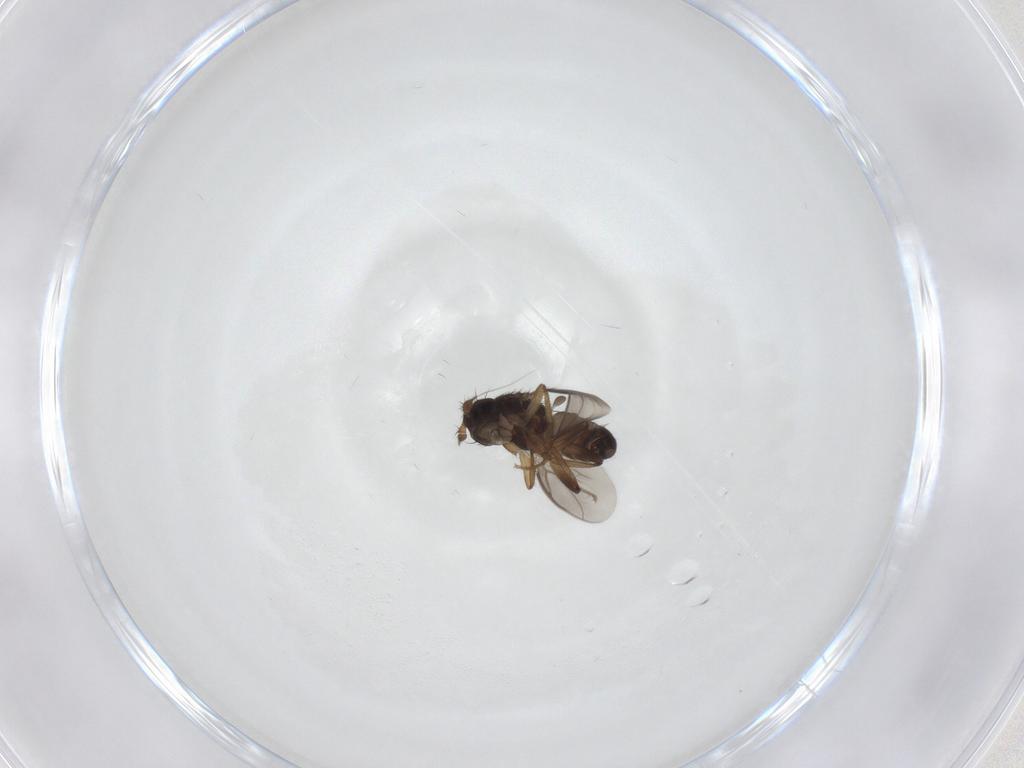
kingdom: Animalia
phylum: Arthropoda
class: Insecta
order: Diptera
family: Sphaeroceridae
